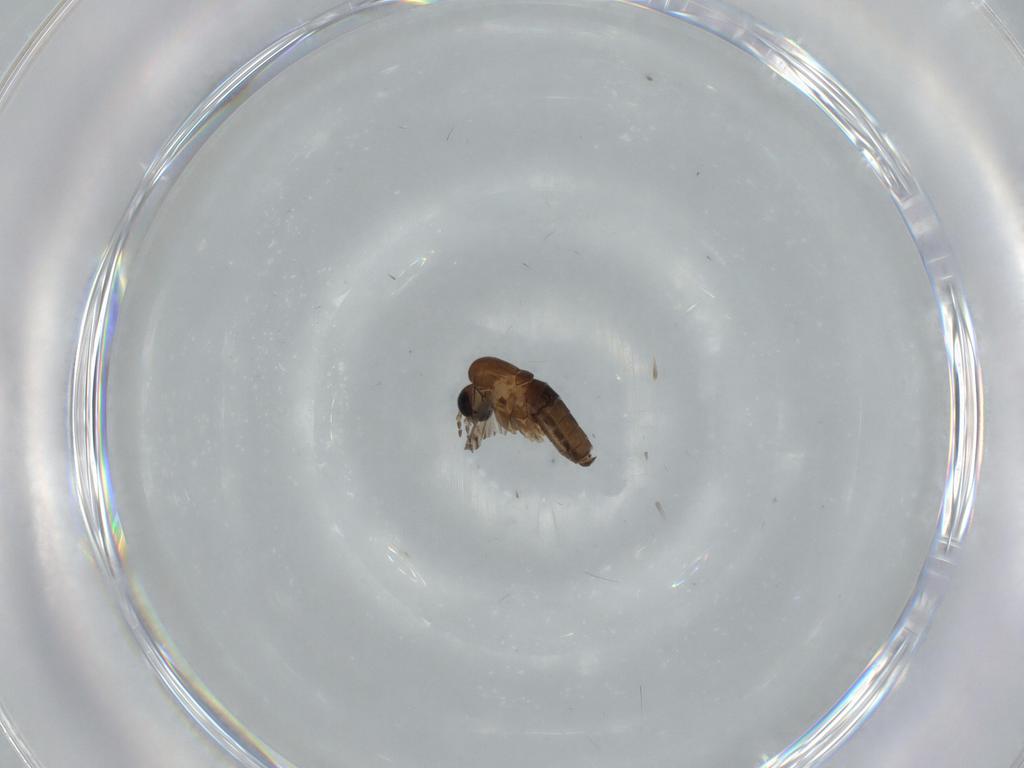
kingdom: Animalia
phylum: Arthropoda
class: Insecta
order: Diptera
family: Psychodidae
